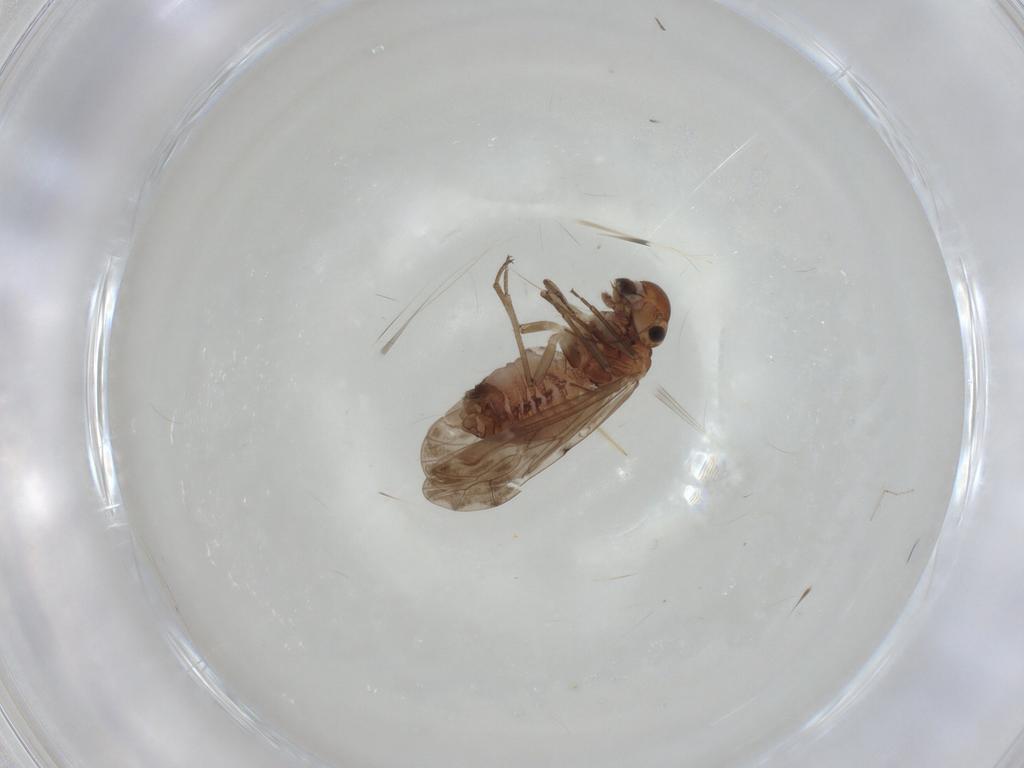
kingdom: Animalia
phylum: Arthropoda
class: Insecta
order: Psocodea
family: Peripsocidae
